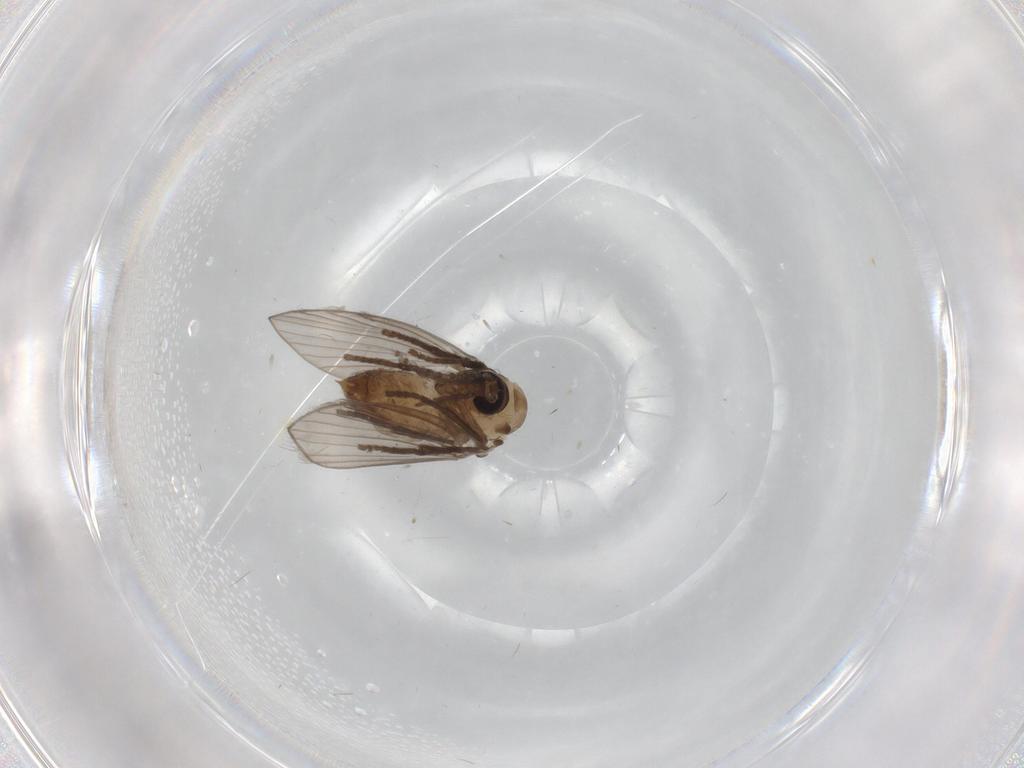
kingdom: Animalia
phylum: Arthropoda
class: Insecta
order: Diptera
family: Psychodidae
